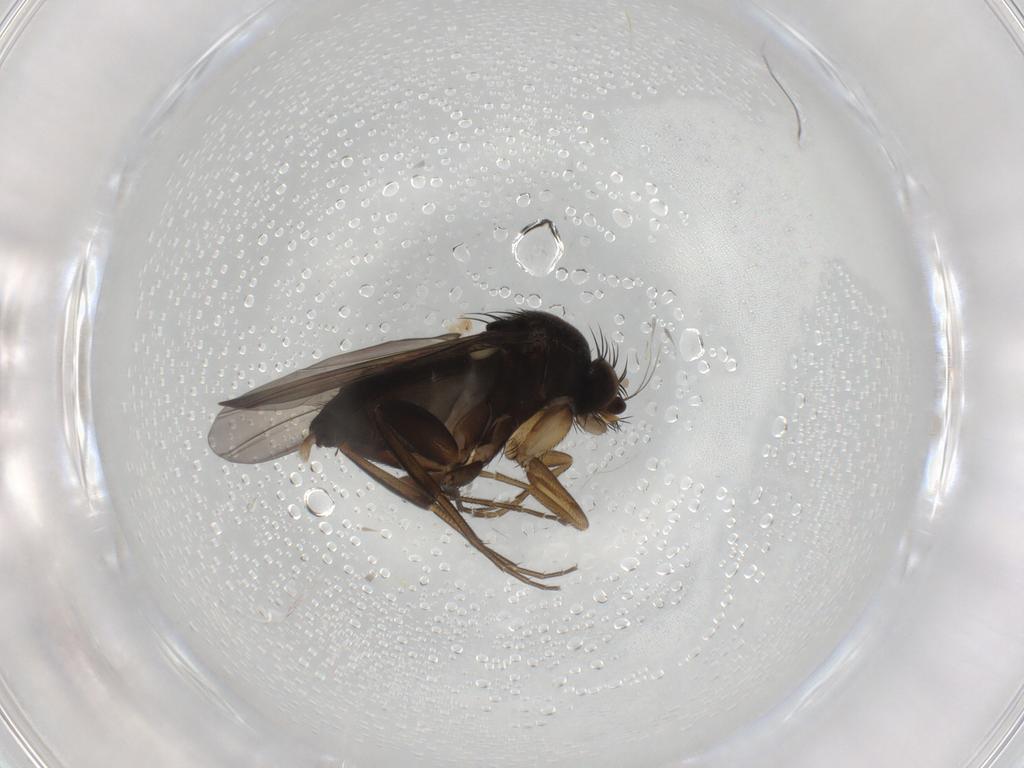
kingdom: Animalia
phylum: Arthropoda
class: Insecta
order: Diptera
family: Phoridae
